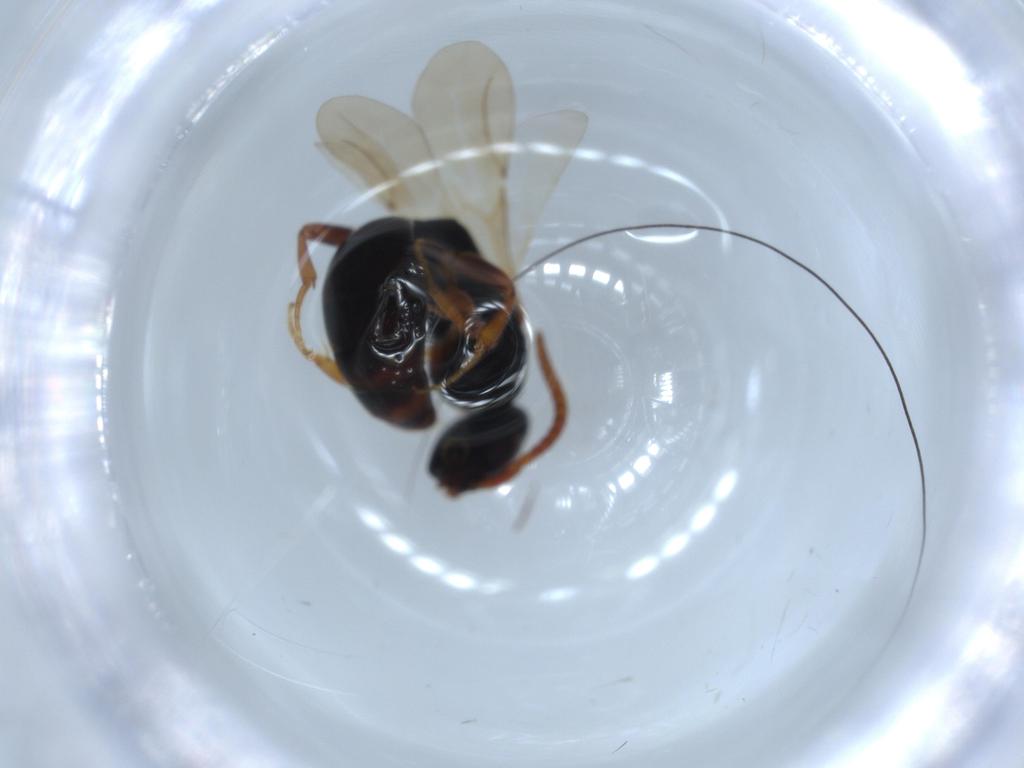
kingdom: Animalia
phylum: Arthropoda
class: Insecta
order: Hymenoptera
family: Bethylidae
